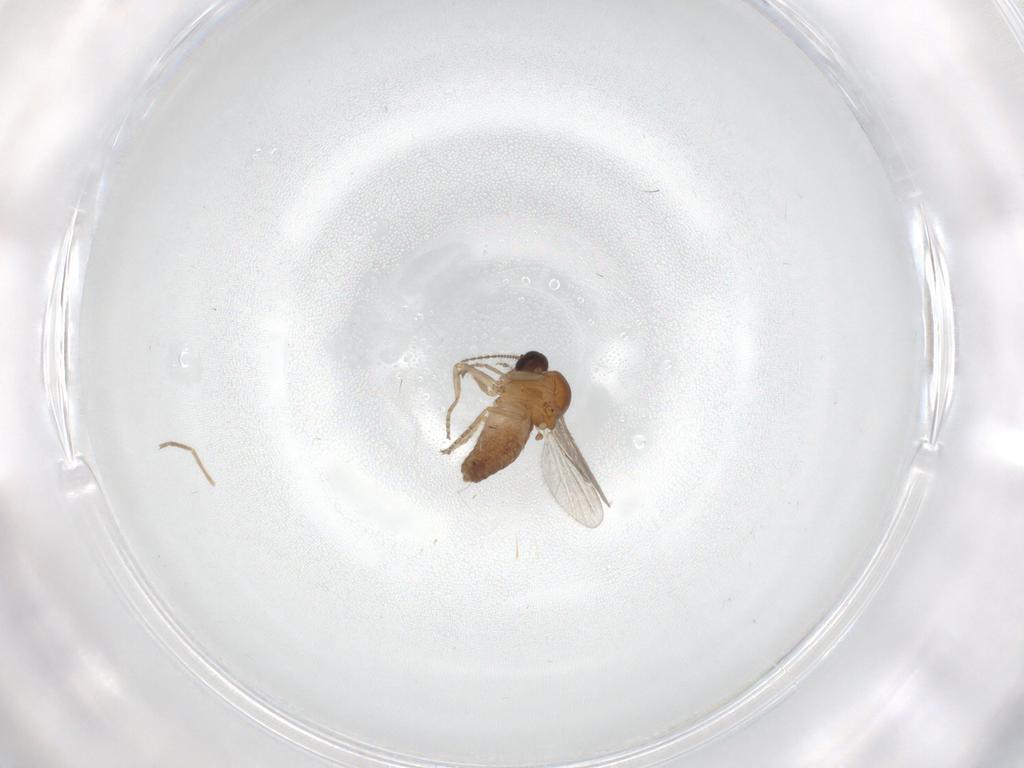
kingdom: Animalia
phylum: Arthropoda
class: Insecta
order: Diptera
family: Ceratopogonidae
